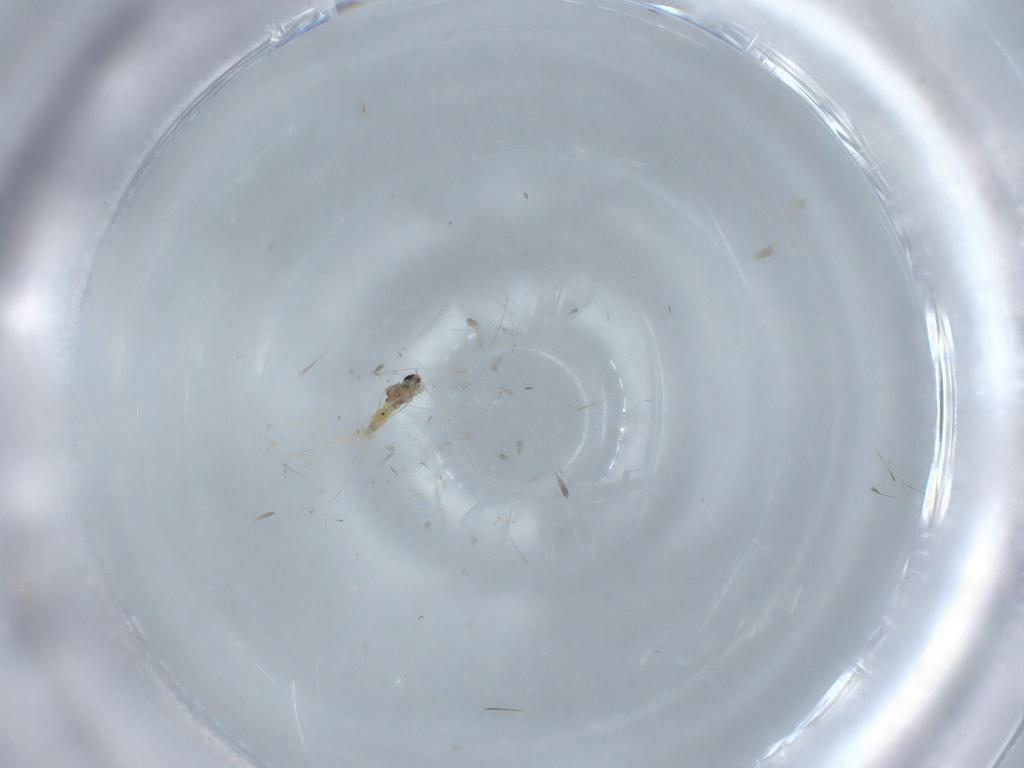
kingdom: Animalia
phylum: Arthropoda
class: Insecta
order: Diptera
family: Cecidomyiidae
